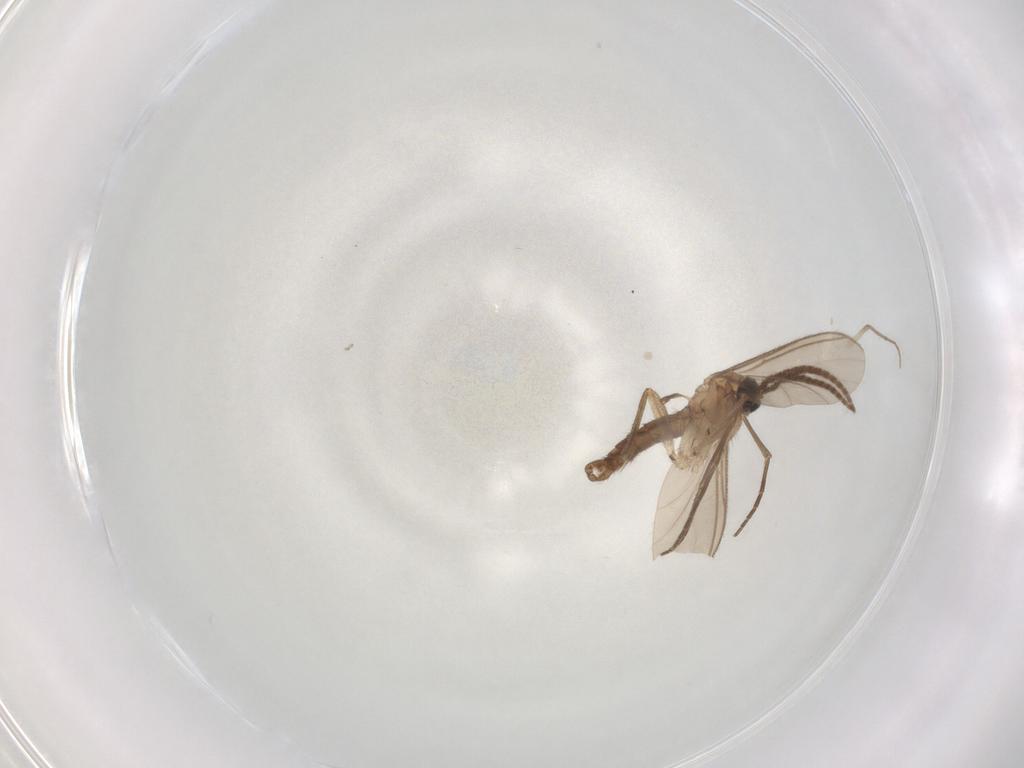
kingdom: Animalia
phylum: Arthropoda
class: Insecta
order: Diptera
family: Chironomidae
